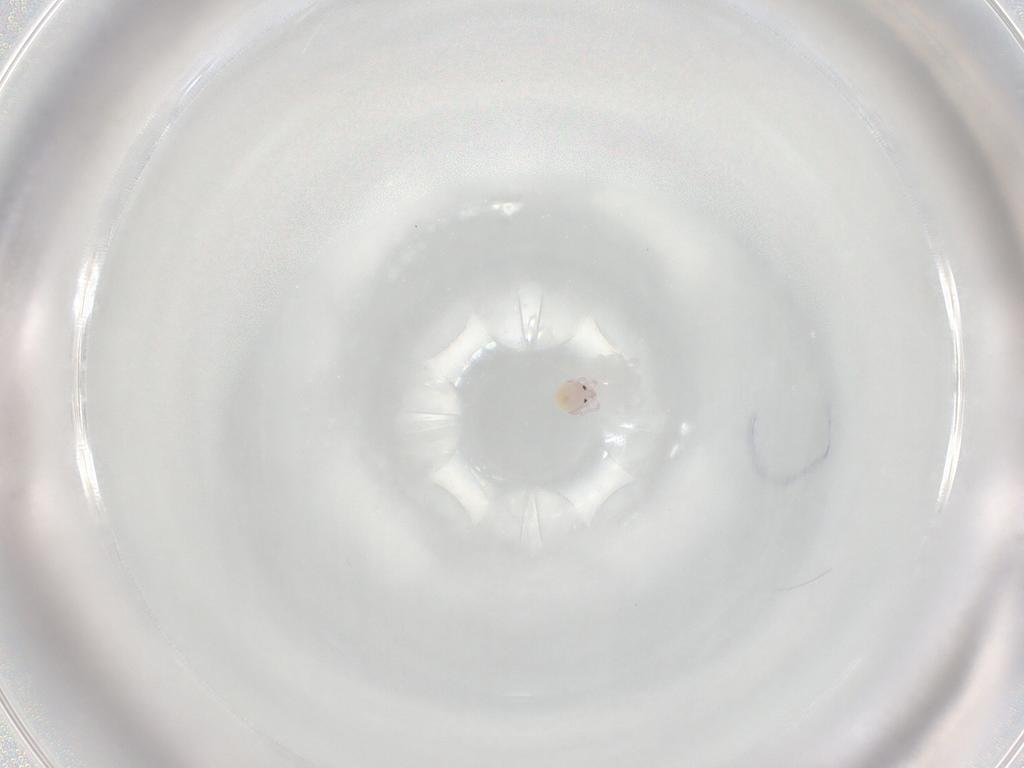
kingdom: Animalia
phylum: Arthropoda
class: Arachnida
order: Trombidiformes
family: Lebertiidae
